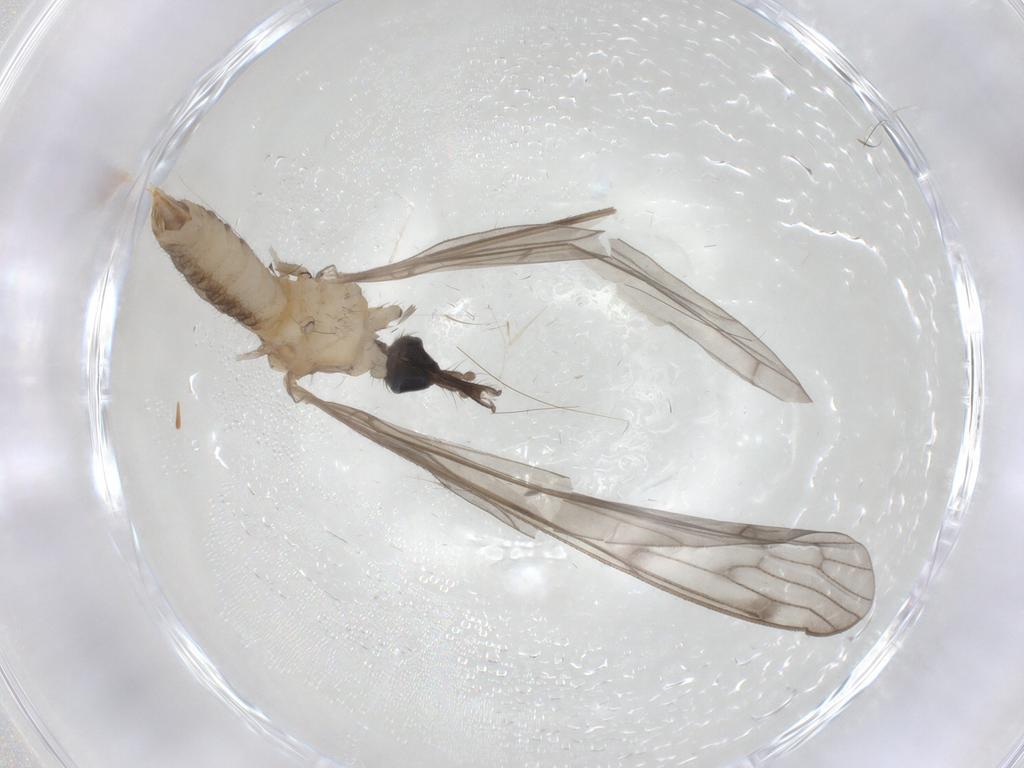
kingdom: Animalia
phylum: Arthropoda
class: Insecta
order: Diptera
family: Limoniidae
